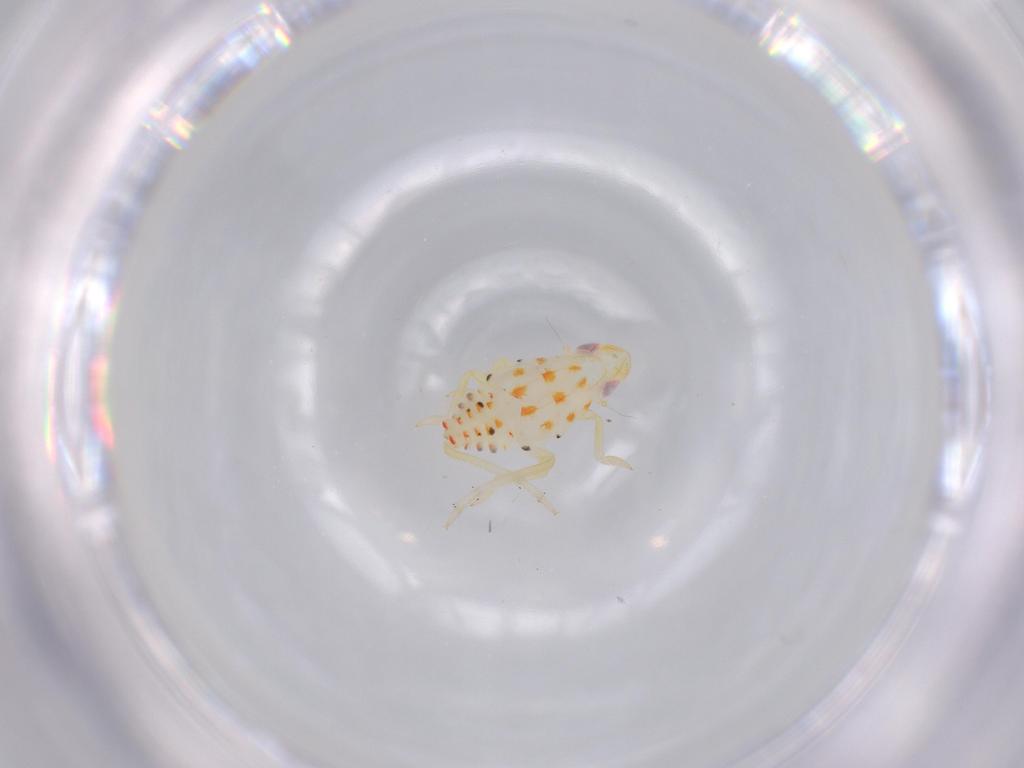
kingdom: Animalia
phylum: Arthropoda
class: Insecta
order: Hemiptera
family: Tropiduchidae
